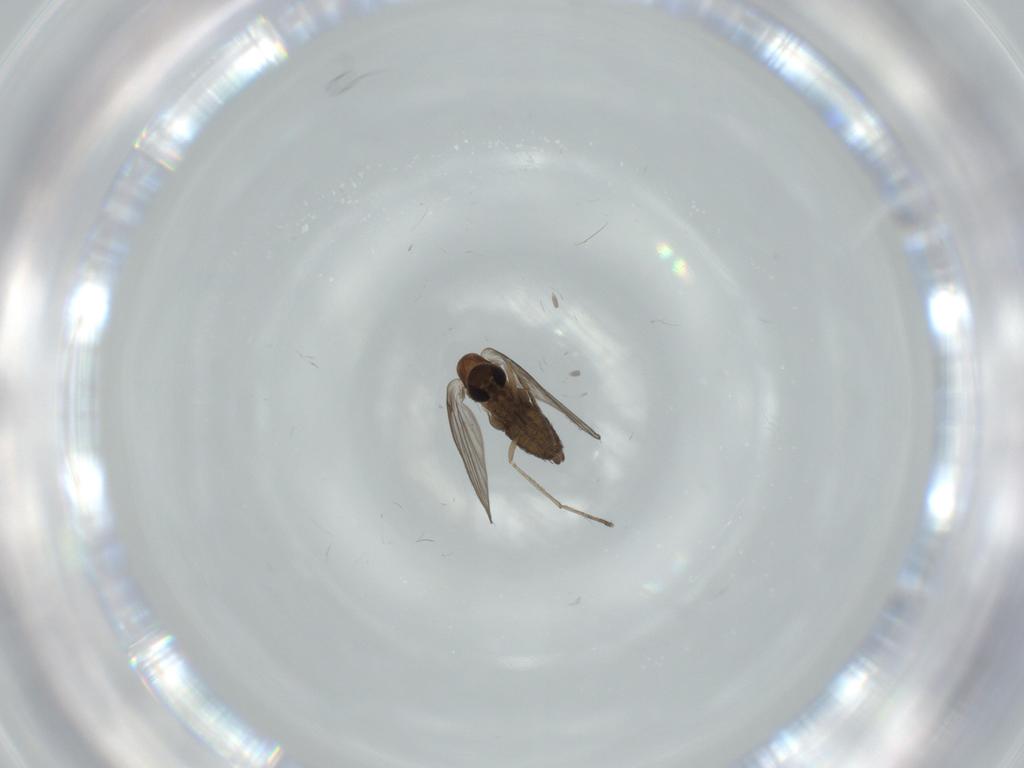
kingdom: Animalia
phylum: Arthropoda
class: Insecta
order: Diptera
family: Psychodidae
